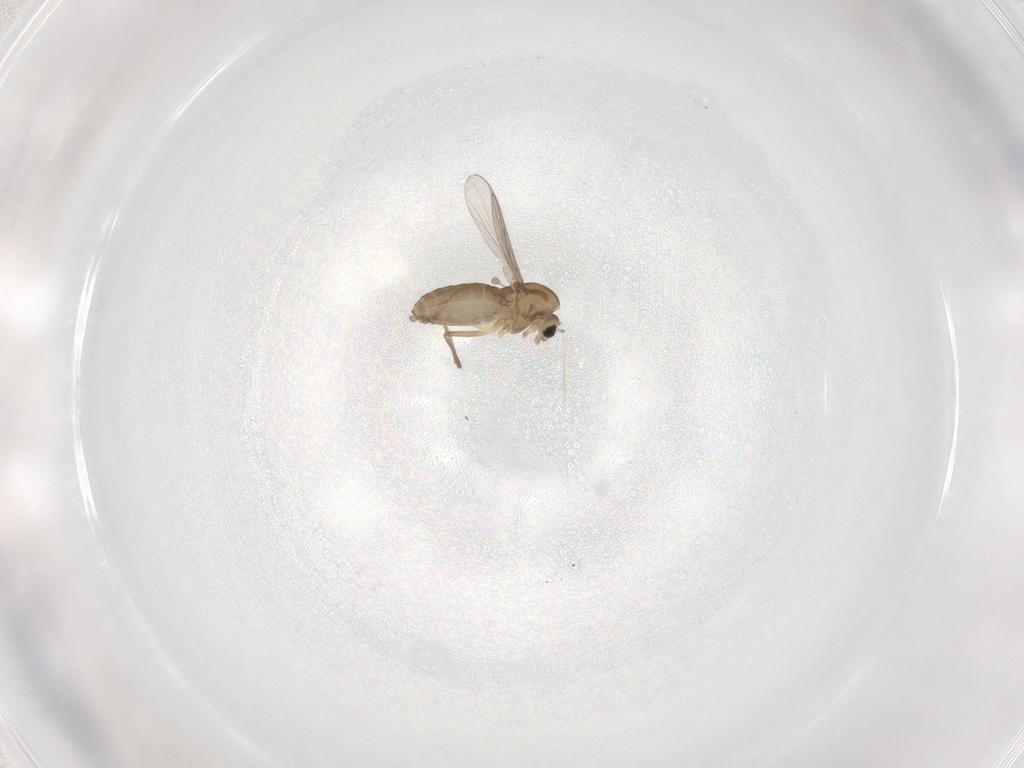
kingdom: Animalia
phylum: Arthropoda
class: Insecta
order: Diptera
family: Chironomidae
